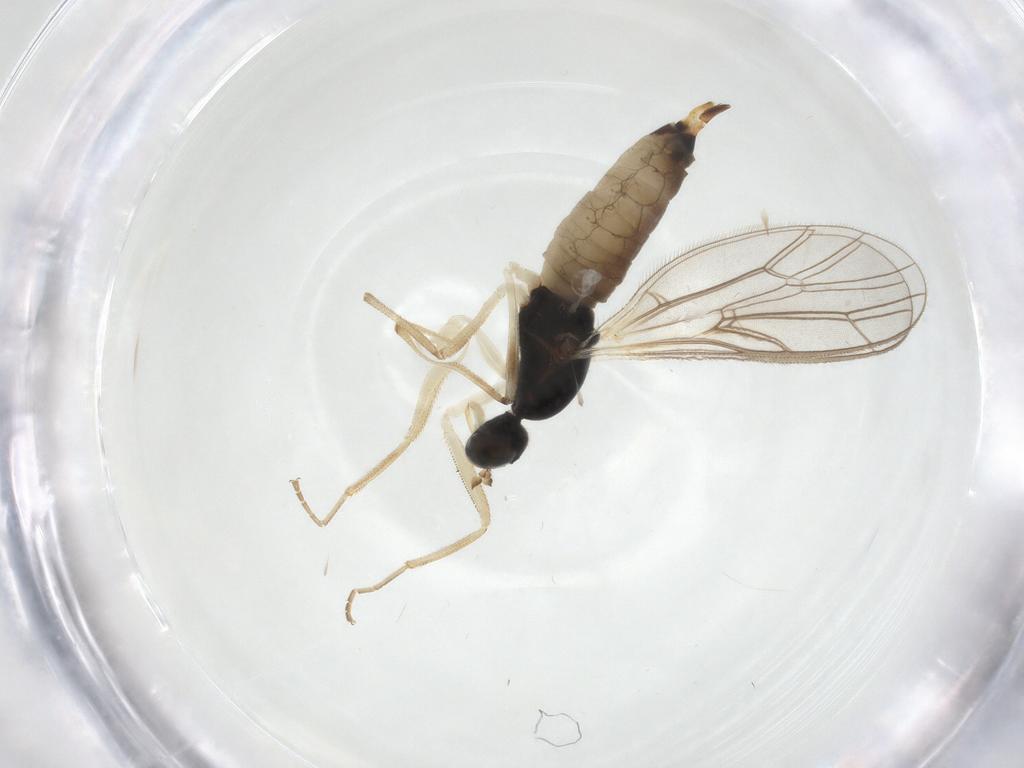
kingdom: Animalia
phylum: Arthropoda
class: Insecta
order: Diptera
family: Empididae
